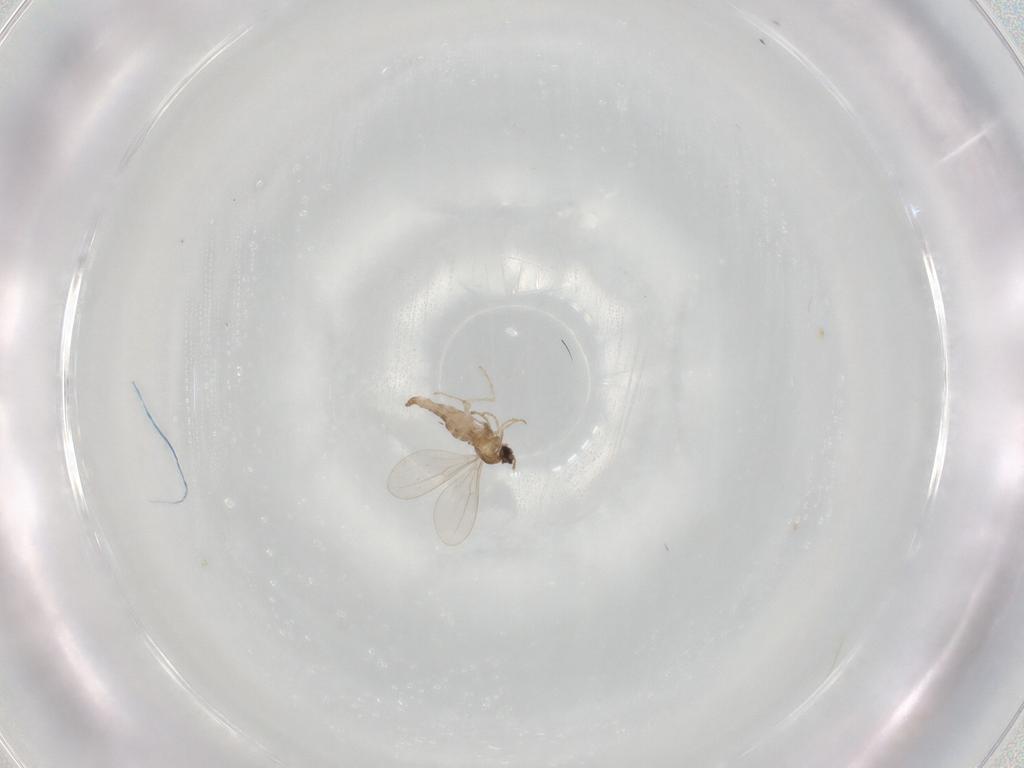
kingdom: Animalia
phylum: Arthropoda
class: Insecta
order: Diptera
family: Cecidomyiidae
